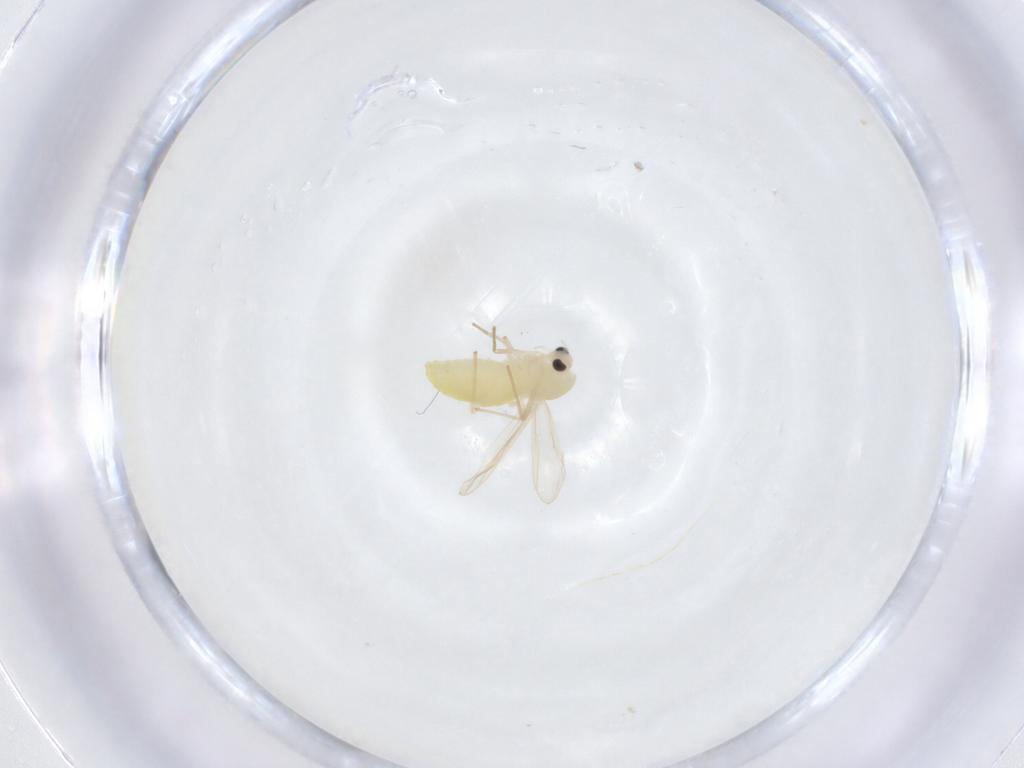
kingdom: Animalia
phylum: Arthropoda
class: Insecta
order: Diptera
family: Chironomidae
